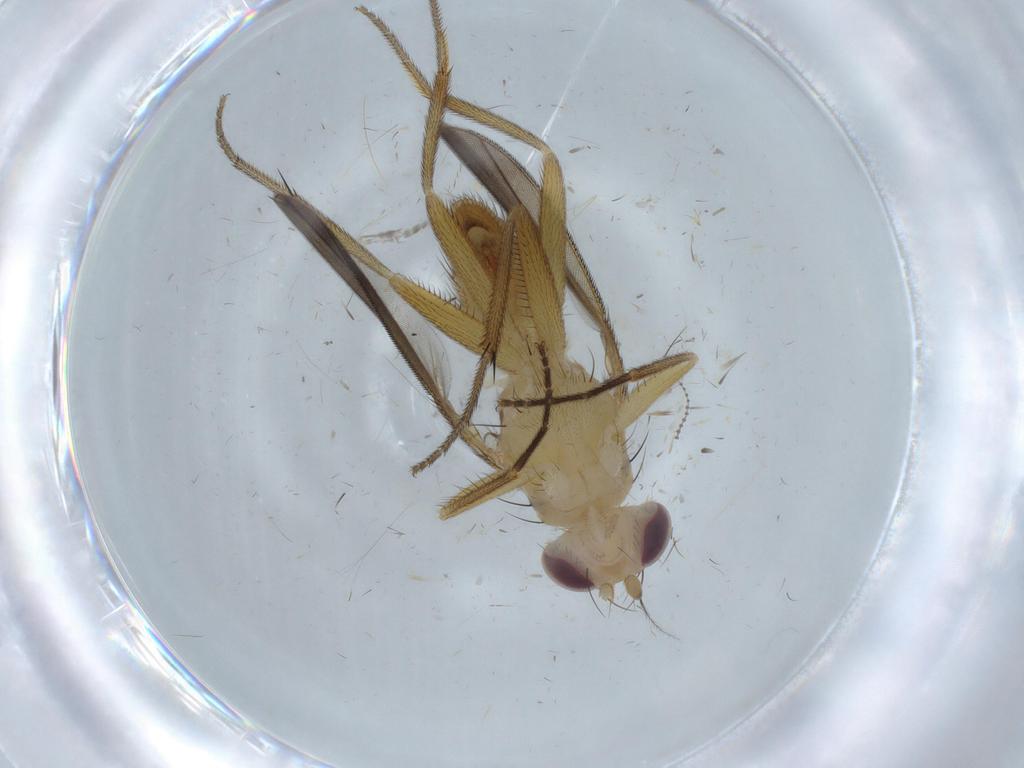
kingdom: Animalia
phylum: Arthropoda
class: Insecta
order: Diptera
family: Clusiidae
